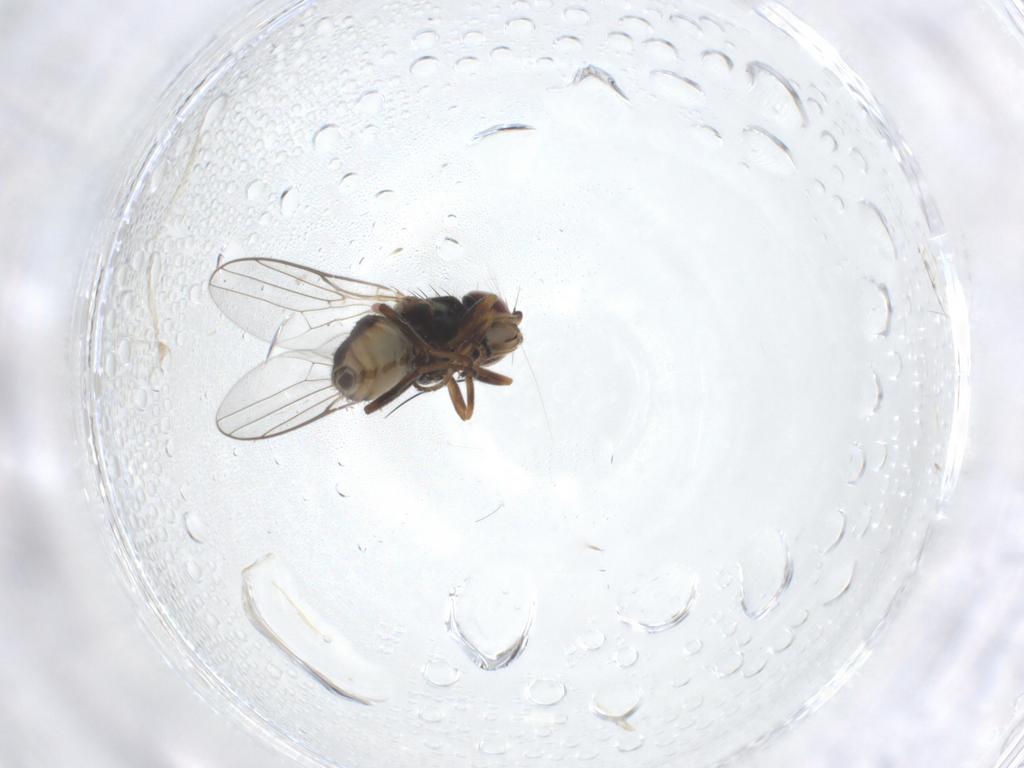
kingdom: Animalia
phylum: Arthropoda
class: Insecta
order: Diptera
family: Chloropidae
